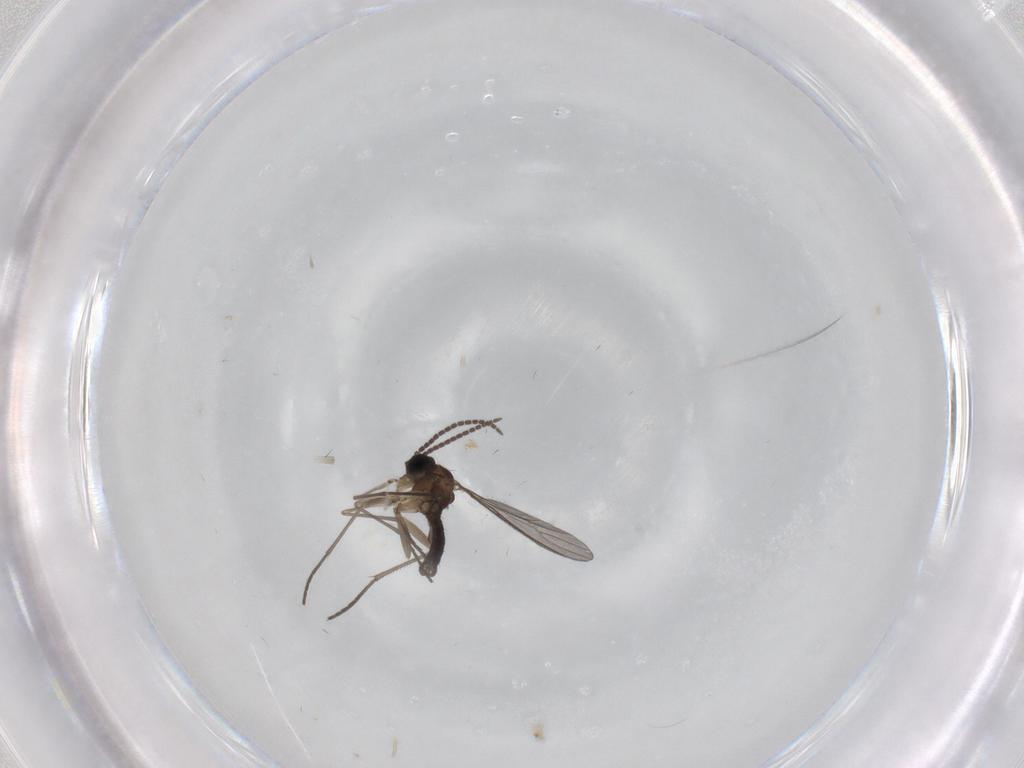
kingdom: Animalia
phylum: Arthropoda
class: Insecta
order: Diptera
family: Sciaridae
